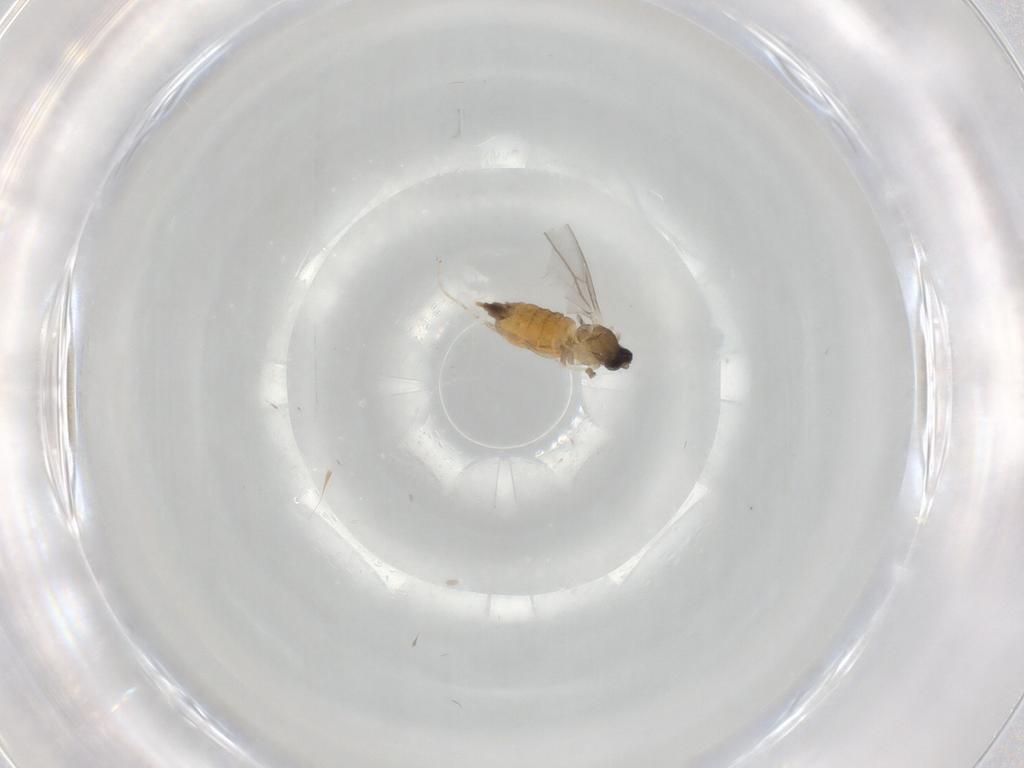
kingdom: Animalia
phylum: Arthropoda
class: Insecta
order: Diptera
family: Cecidomyiidae
